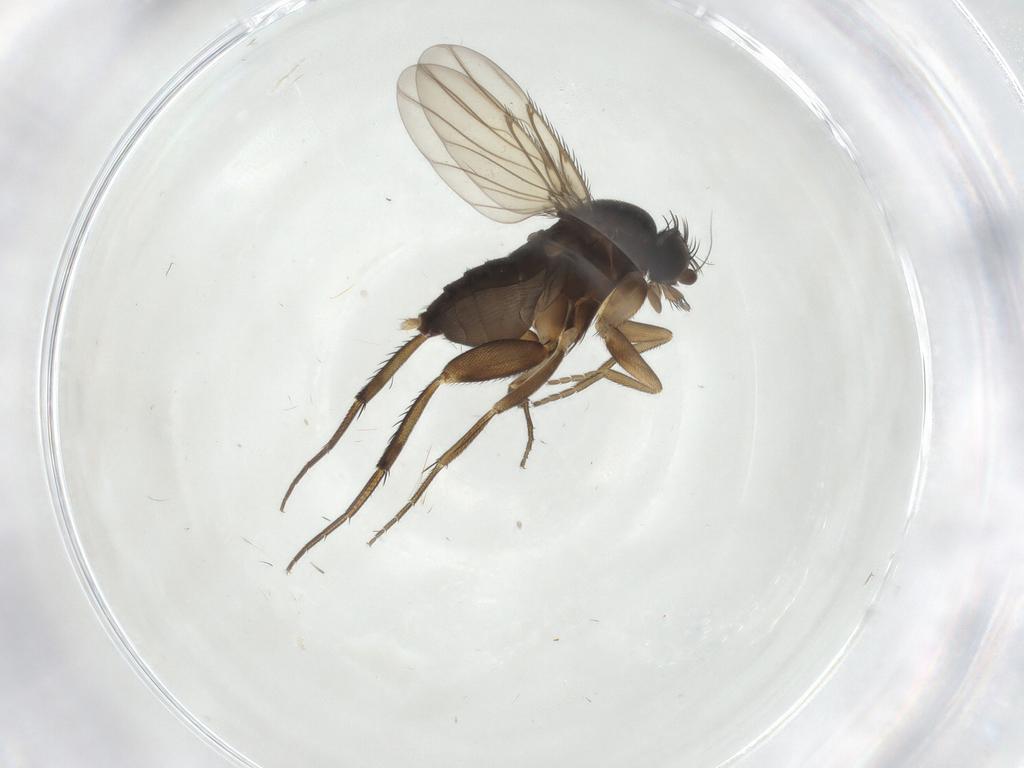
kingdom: Animalia
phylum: Arthropoda
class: Insecta
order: Diptera
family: Phoridae
